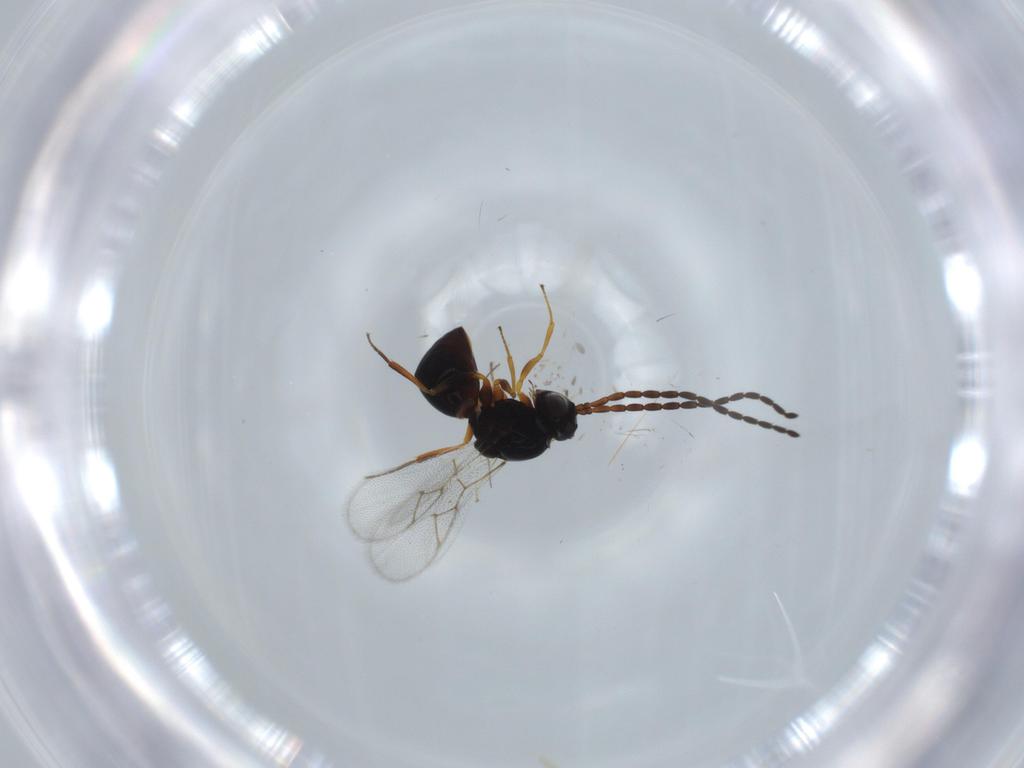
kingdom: Animalia
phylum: Arthropoda
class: Insecta
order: Hymenoptera
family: Figitidae
